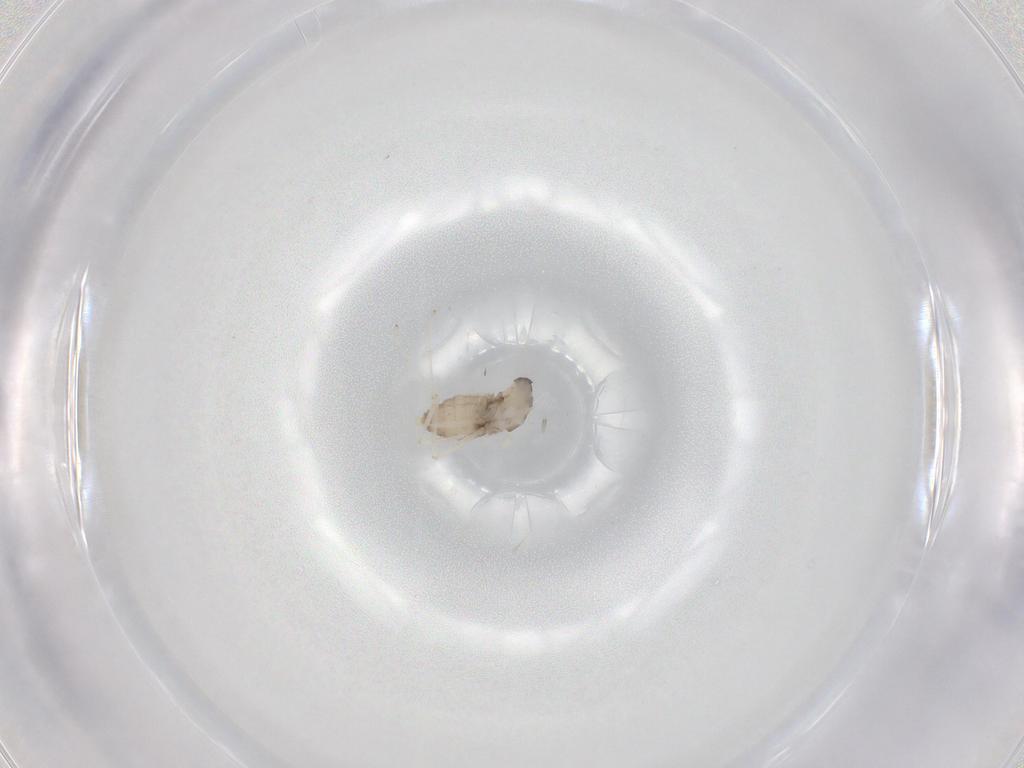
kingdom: Animalia
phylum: Arthropoda
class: Insecta
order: Diptera
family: Cecidomyiidae
